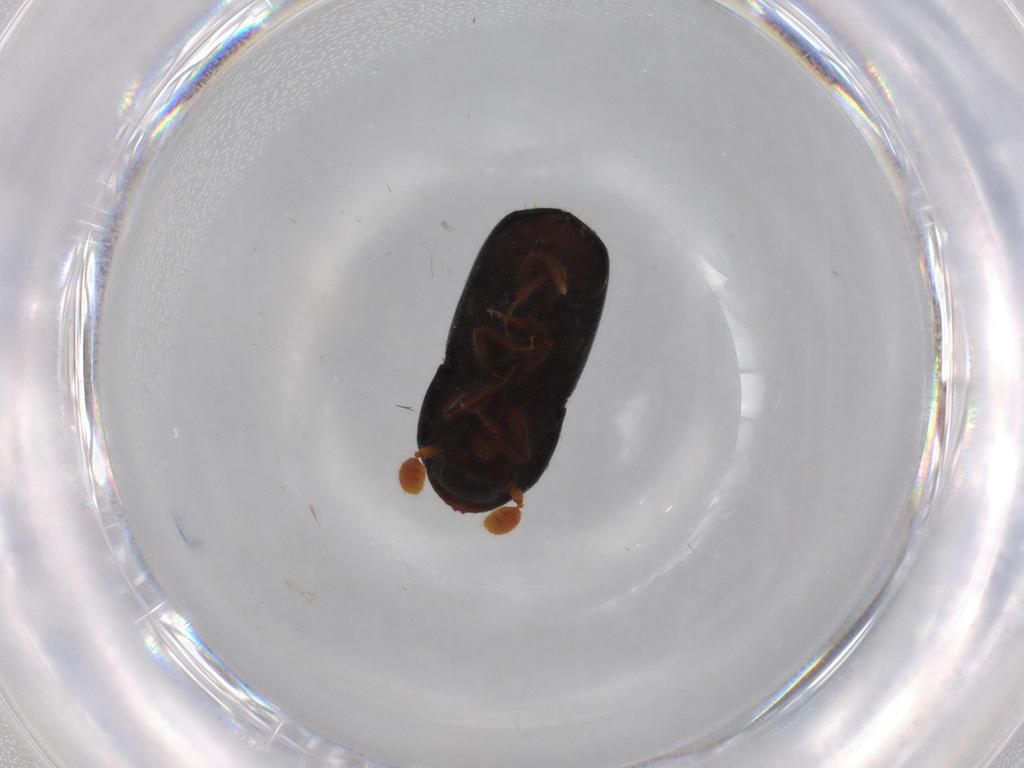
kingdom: Animalia
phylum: Arthropoda
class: Insecta
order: Coleoptera
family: Curculionidae
